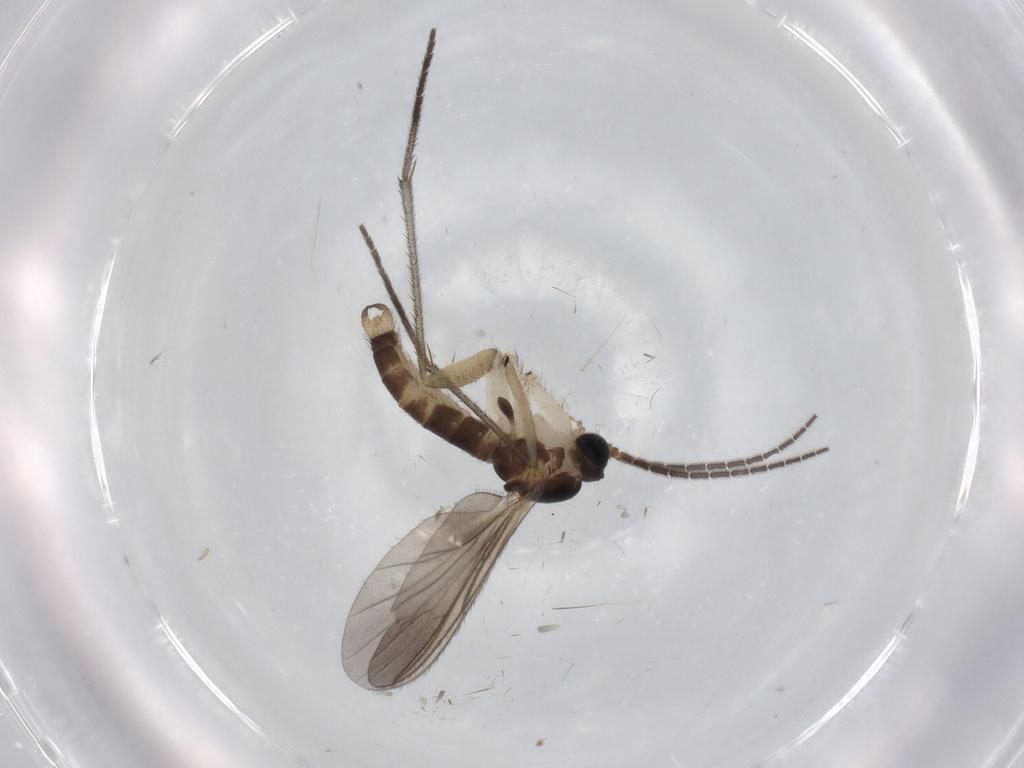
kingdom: Animalia
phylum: Arthropoda
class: Insecta
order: Diptera
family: Sciaridae
